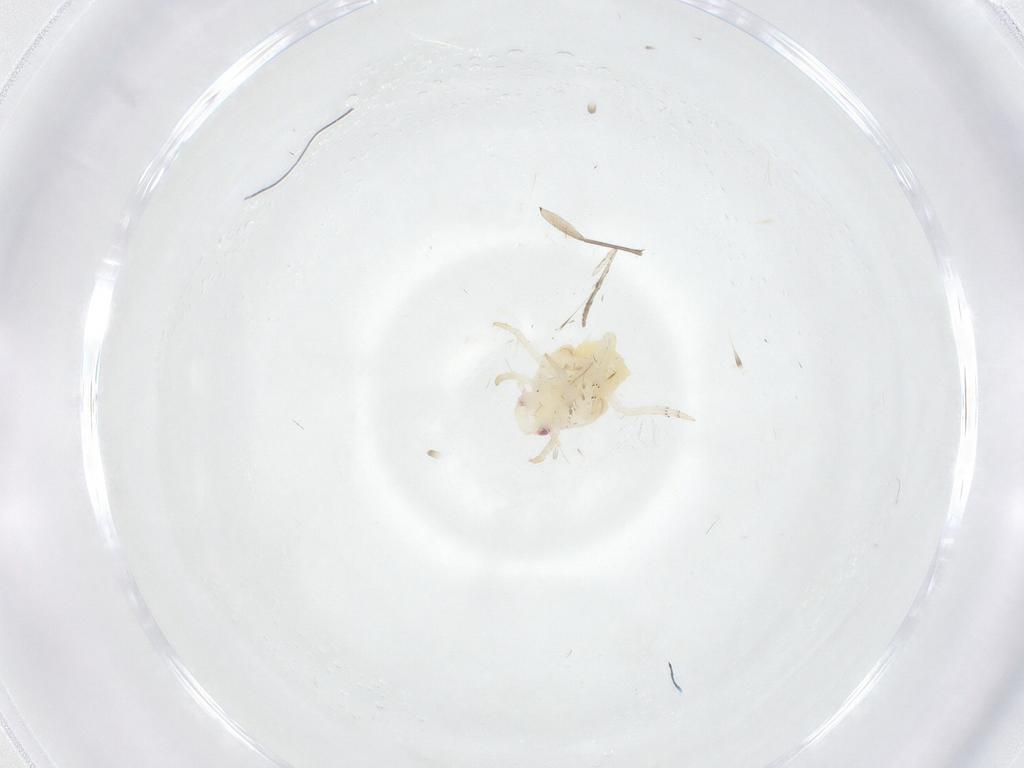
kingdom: Animalia
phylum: Arthropoda
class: Insecta
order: Hemiptera
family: Fulgoroidea_incertae_sedis
